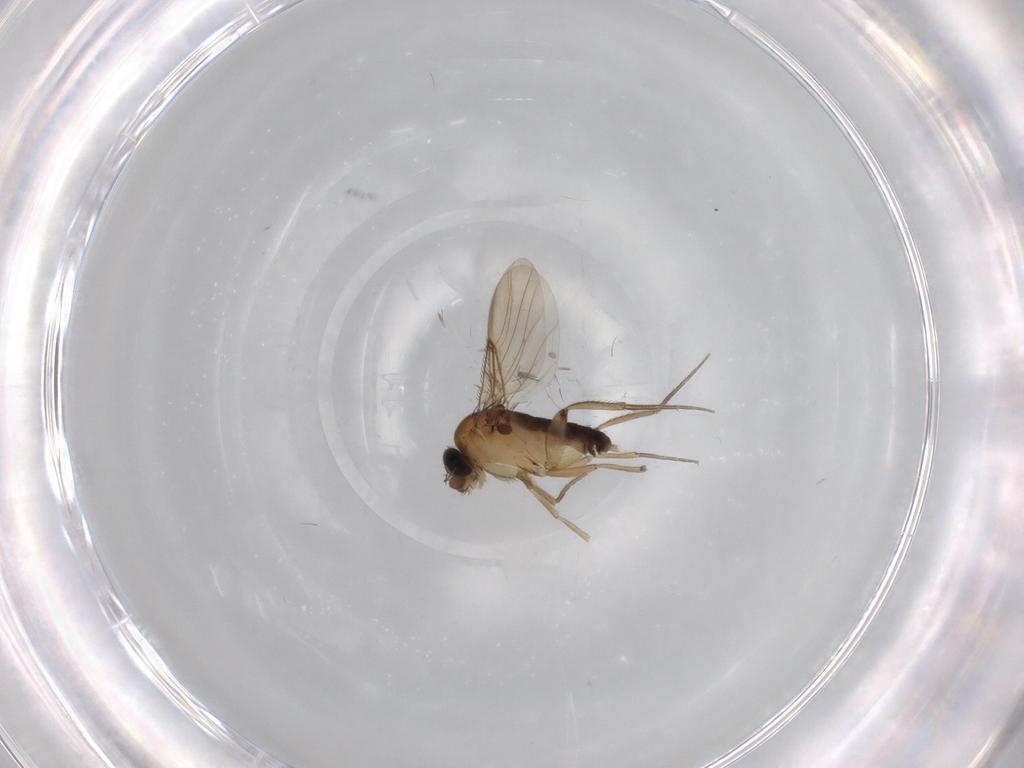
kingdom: Animalia
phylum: Arthropoda
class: Insecta
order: Diptera
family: Phoridae
